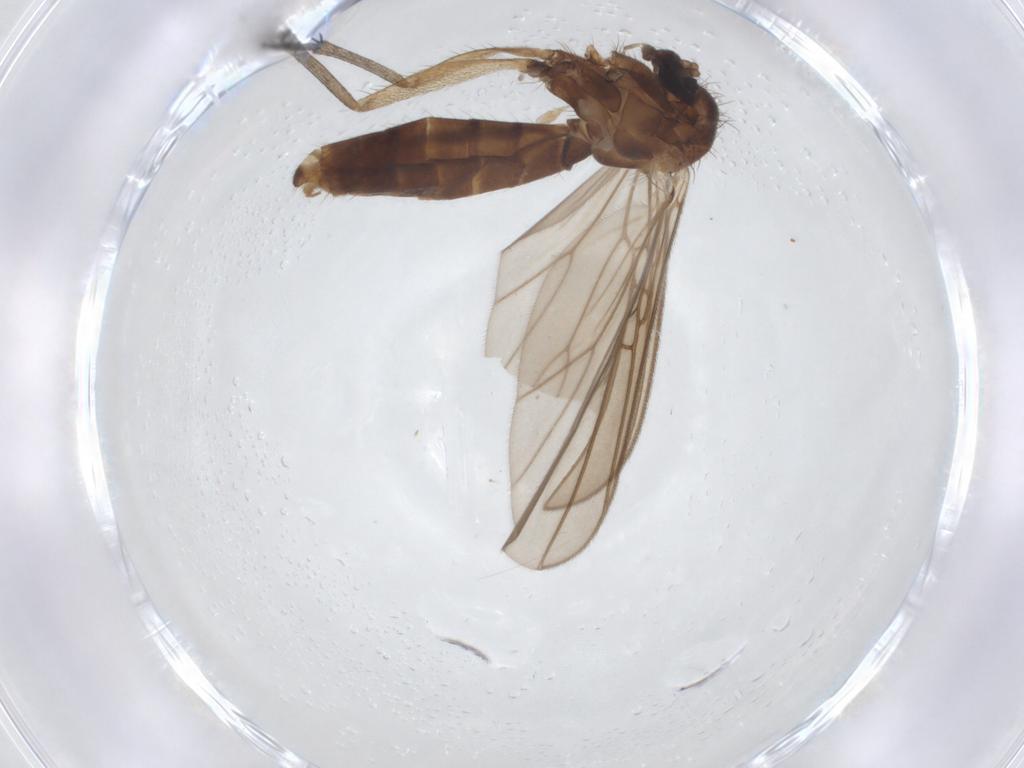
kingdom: Animalia
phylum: Arthropoda
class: Insecta
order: Diptera
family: Mycetophilidae
